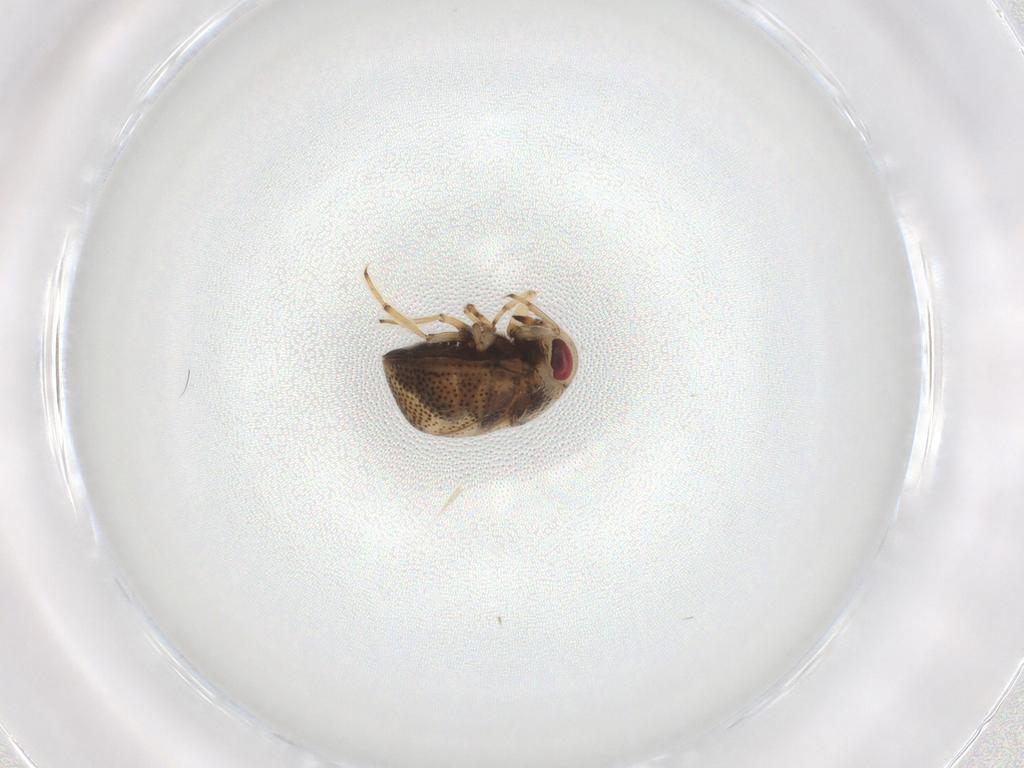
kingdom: Animalia
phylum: Arthropoda
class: Insecta
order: Hemiptera
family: Pleidae
